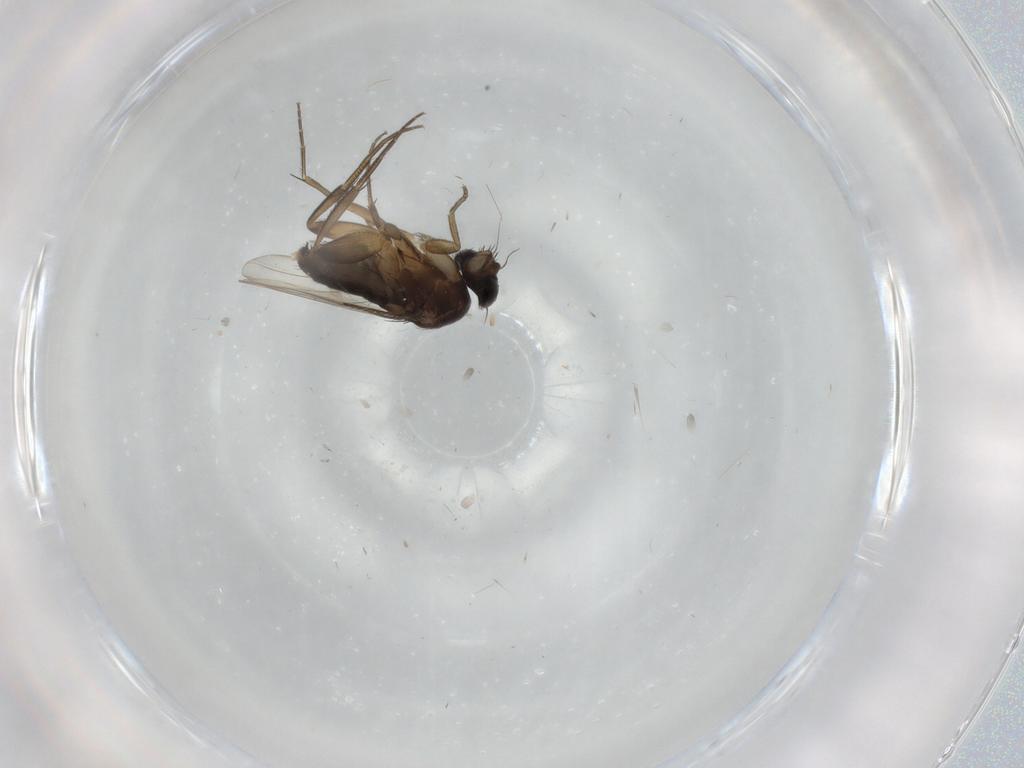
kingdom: Animalia
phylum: Arthropoda
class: Insecta
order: Diptera
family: Phoridae
